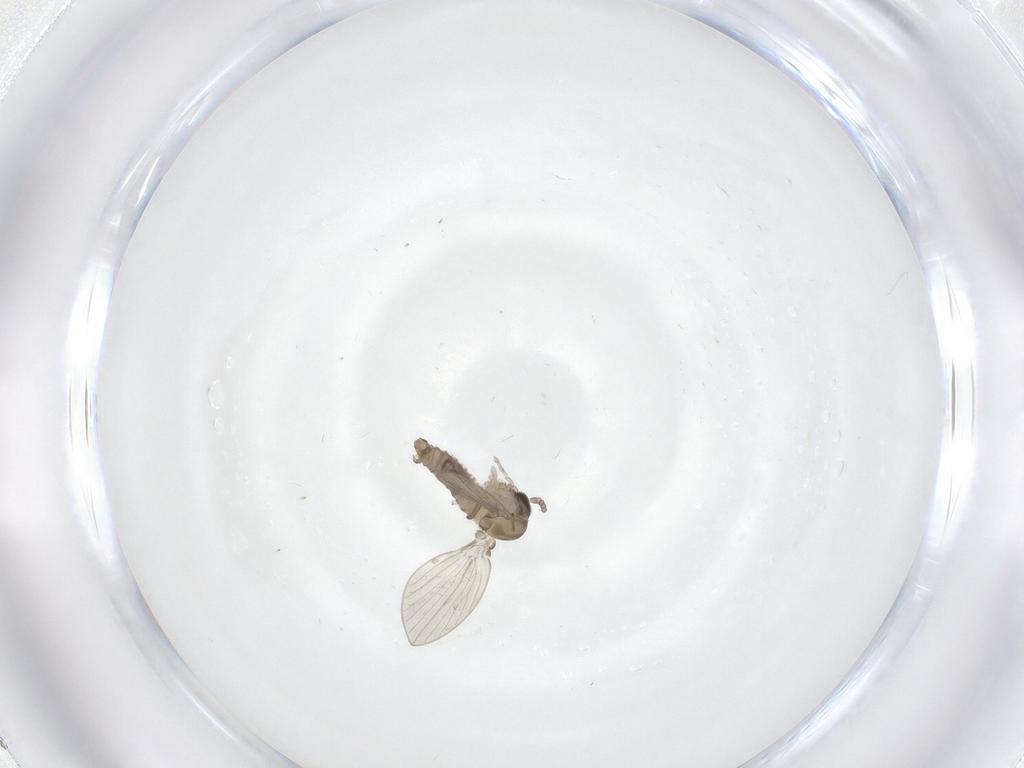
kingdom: Animalia
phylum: Arthropoda
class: Insecta
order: Diptera
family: Psychodidae
